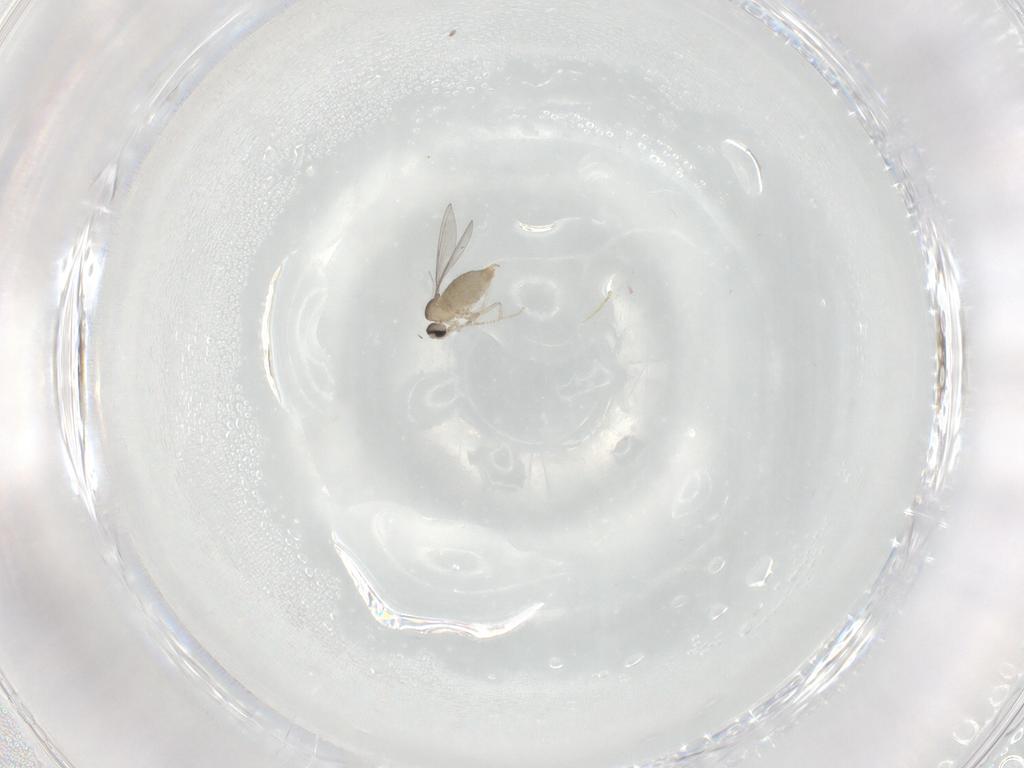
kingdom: Animalia
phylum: Arthropoda
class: Insecta
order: Diptera
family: Cecidomyiidae
